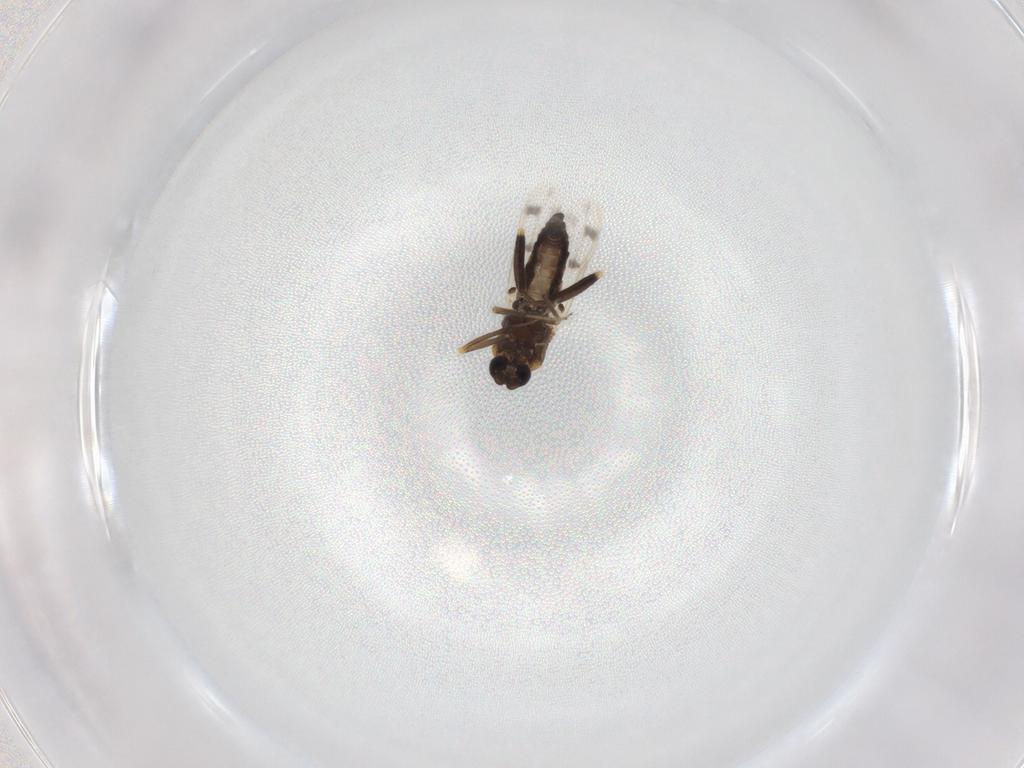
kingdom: Animalia
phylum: Arthropoda
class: Insecta
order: Diptera
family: Ceratopogonidae
